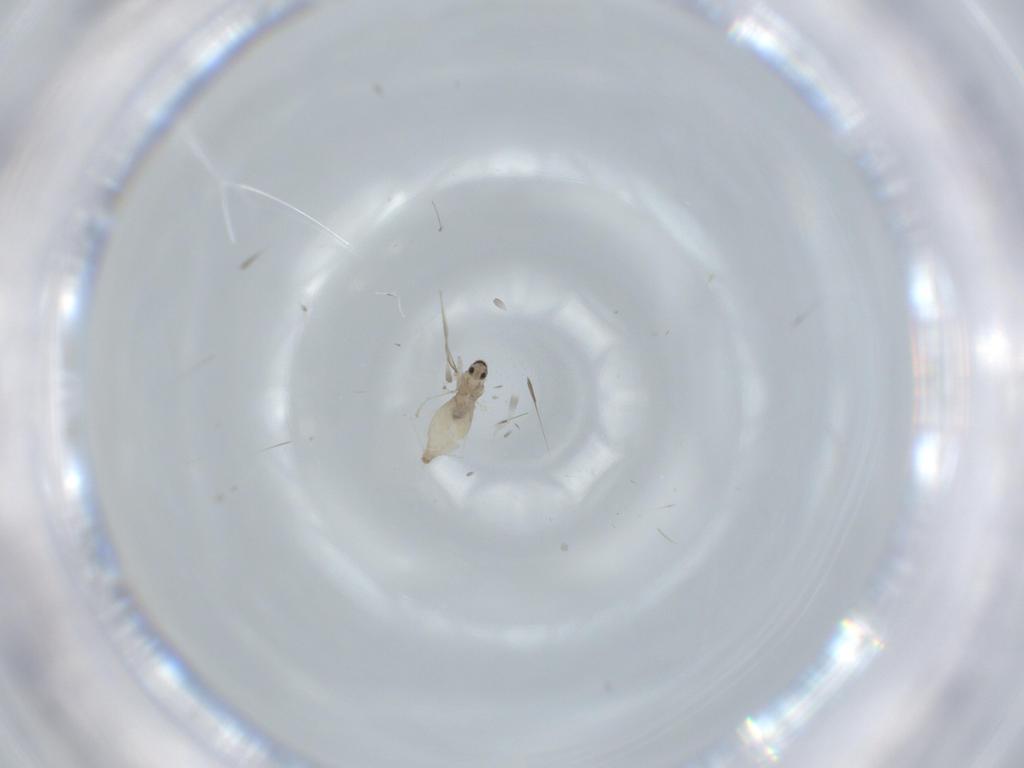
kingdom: Animalia
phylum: Arthropoda
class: Insecta
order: Diptera
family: Cecidomyiidae
